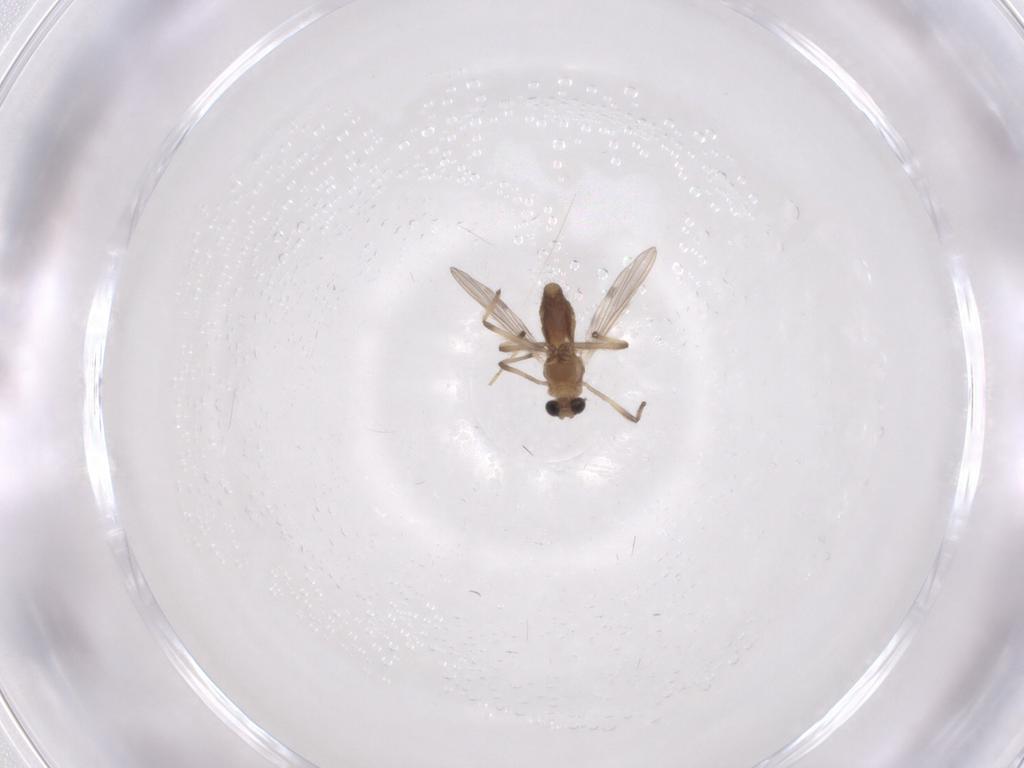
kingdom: Animalia
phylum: Arthropoda
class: Insecta
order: Diptera
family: Chironomidae
